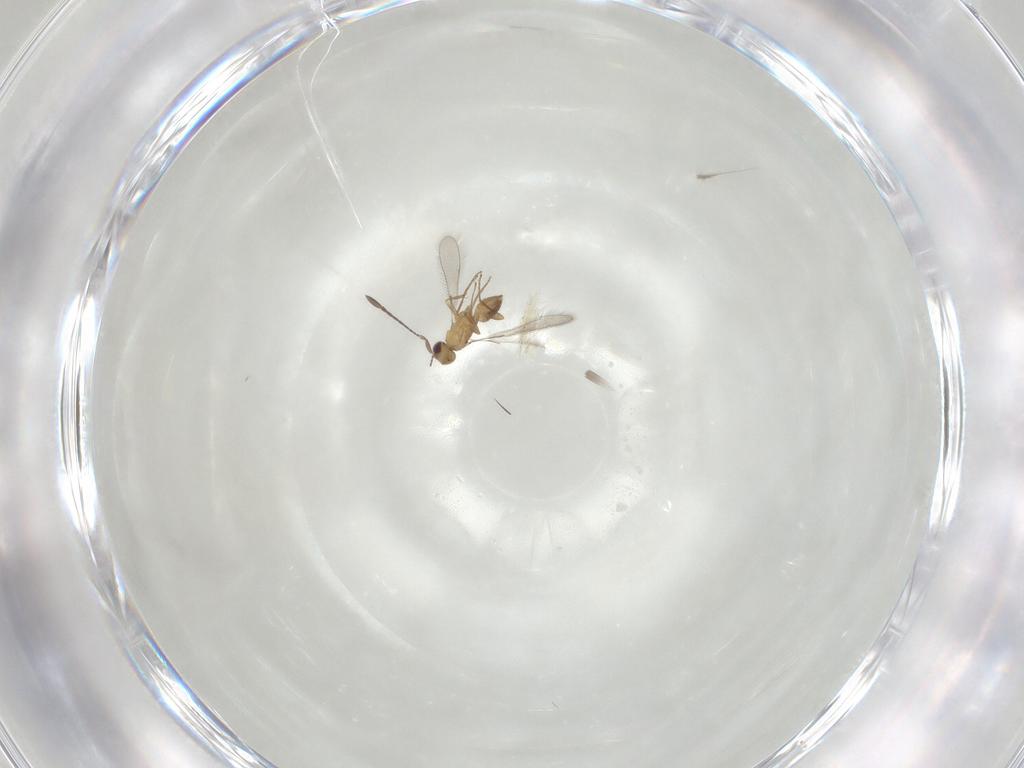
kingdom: Animalia
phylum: Arthropoda
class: Insecta
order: Hymenoptera
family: Mymaridae
